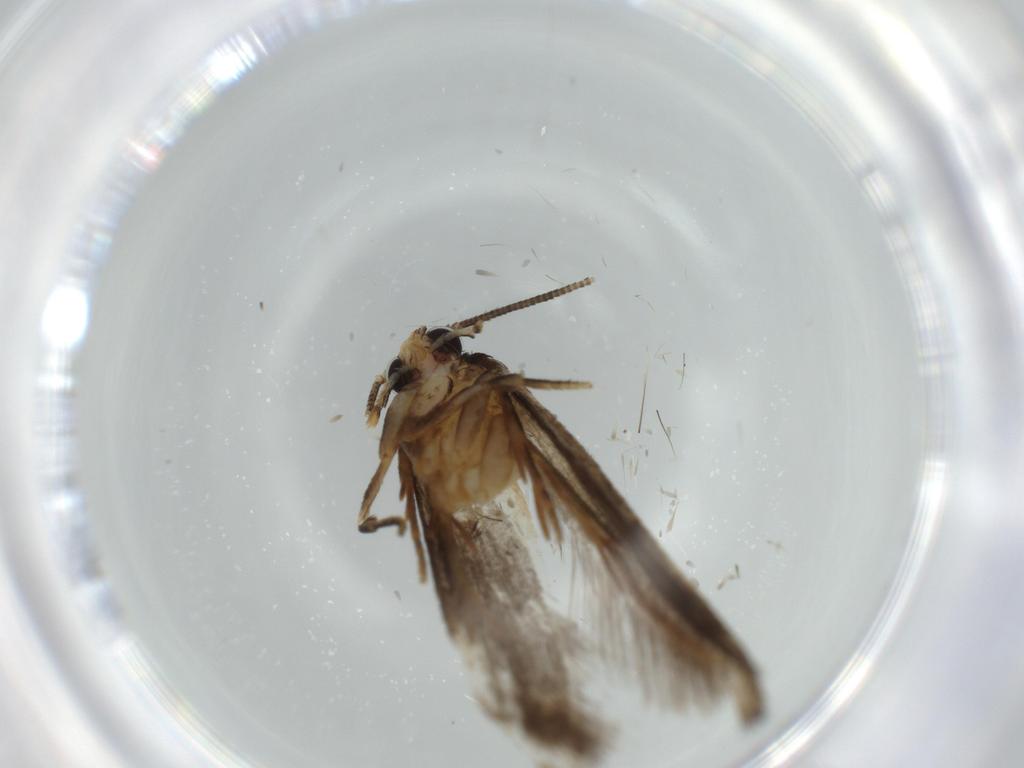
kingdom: Animalia
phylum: Arthropoda
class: Insecta
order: Lepidoptera
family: Tineidae
